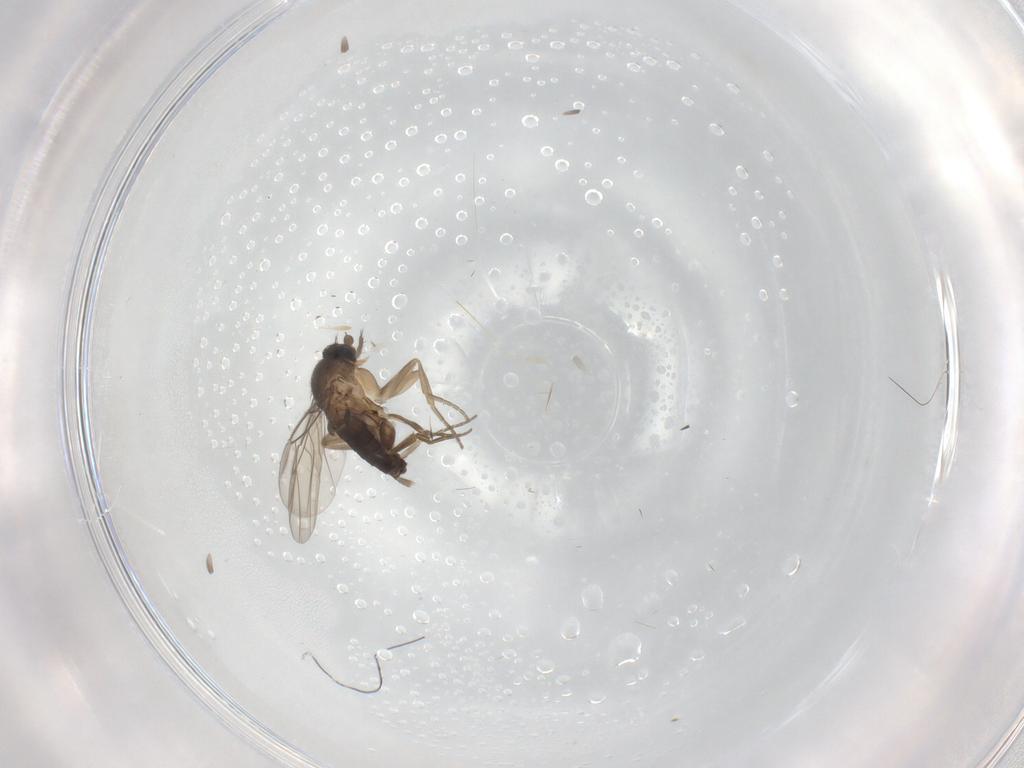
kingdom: Animalia
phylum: Arthropoda
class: Insecta
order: Diptera
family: Phoridae
